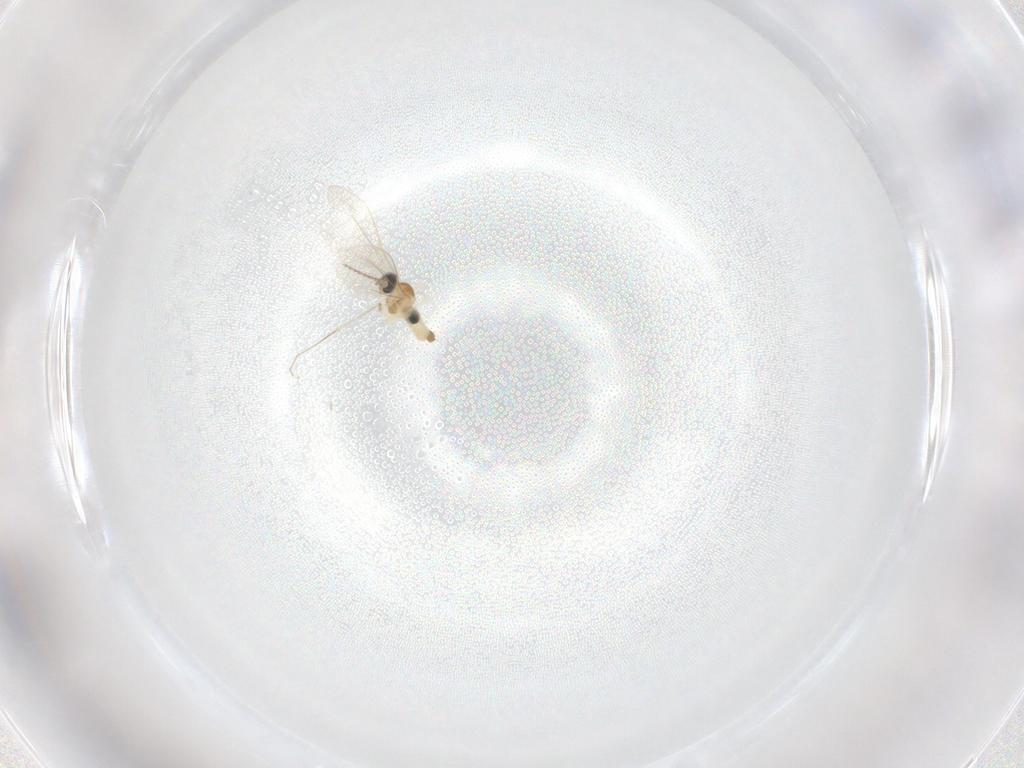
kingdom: Animalia
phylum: Arthropoda
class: Insecta
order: Diptera
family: Cecidomyiidae
